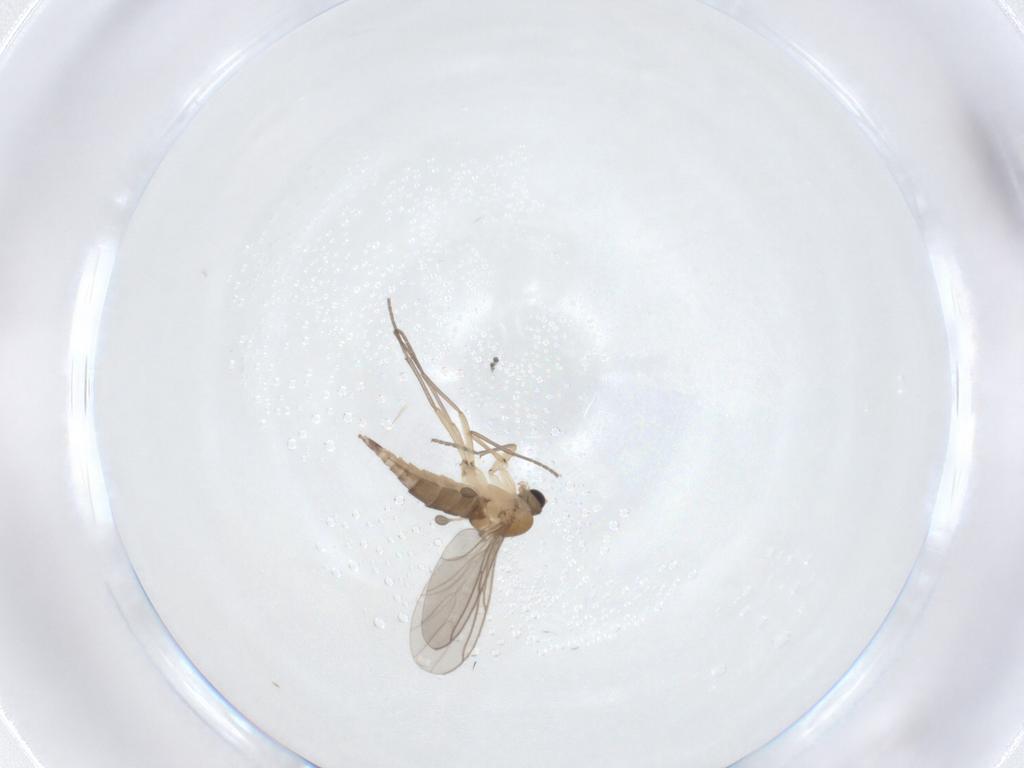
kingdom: Animalia
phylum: Arthropoda
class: Insecta
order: Diptera
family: Sciaridae
